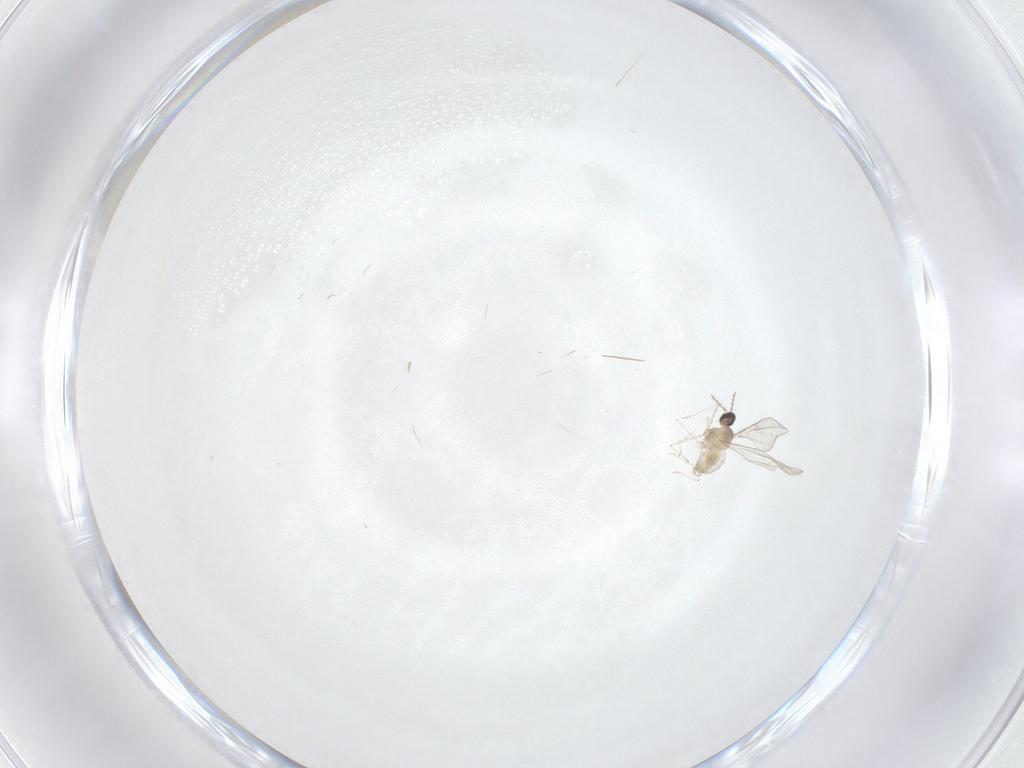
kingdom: Animalia
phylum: Arthropoda
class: Insecta
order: Diptera
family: Cecidomyiidae
